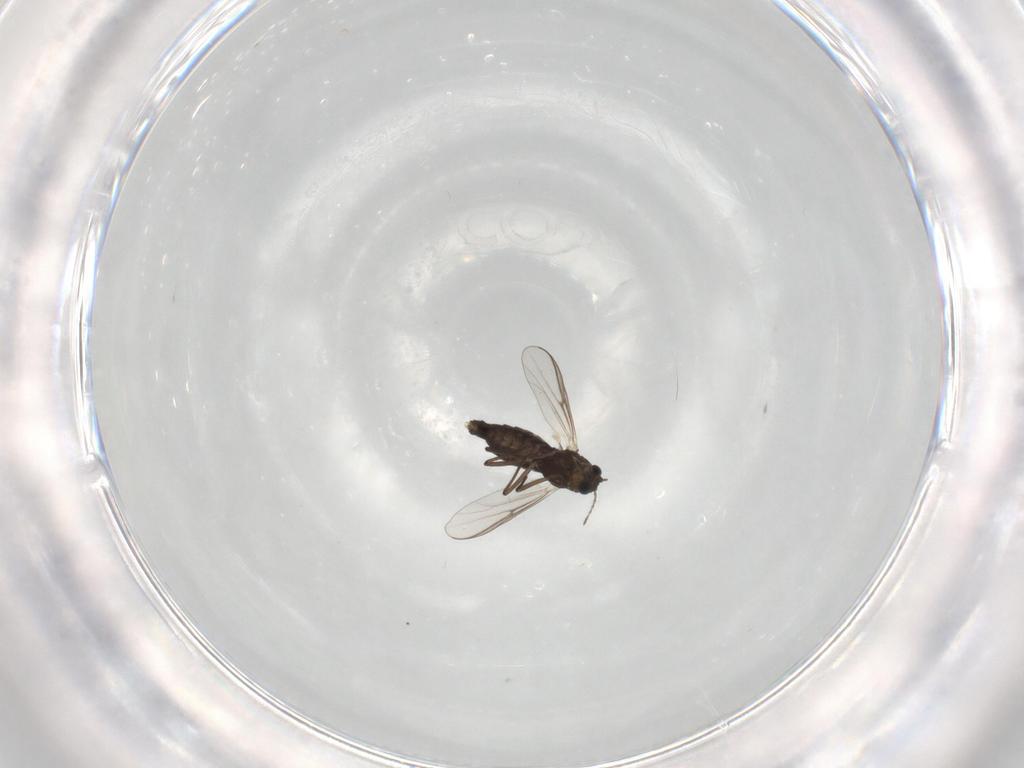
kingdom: Animalia
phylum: Arthropoda
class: Insecta
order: Diptera
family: Chironomidae
